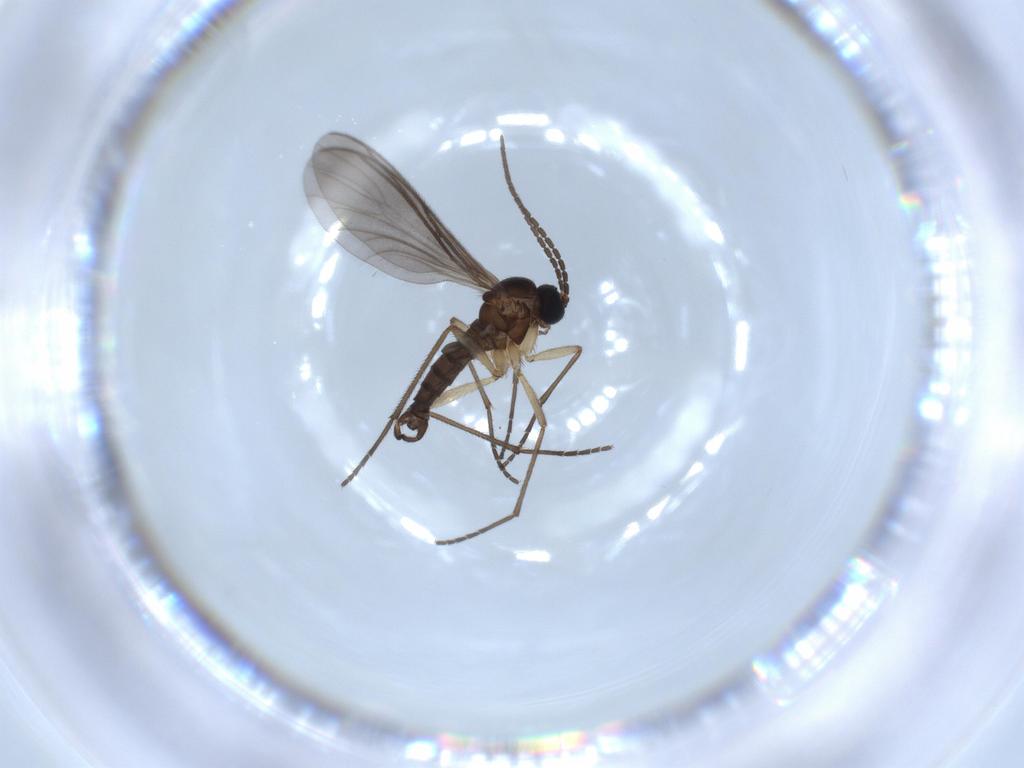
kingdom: Animalia
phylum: Arthropoda
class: Insecta
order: Diptera
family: Sciaridae
